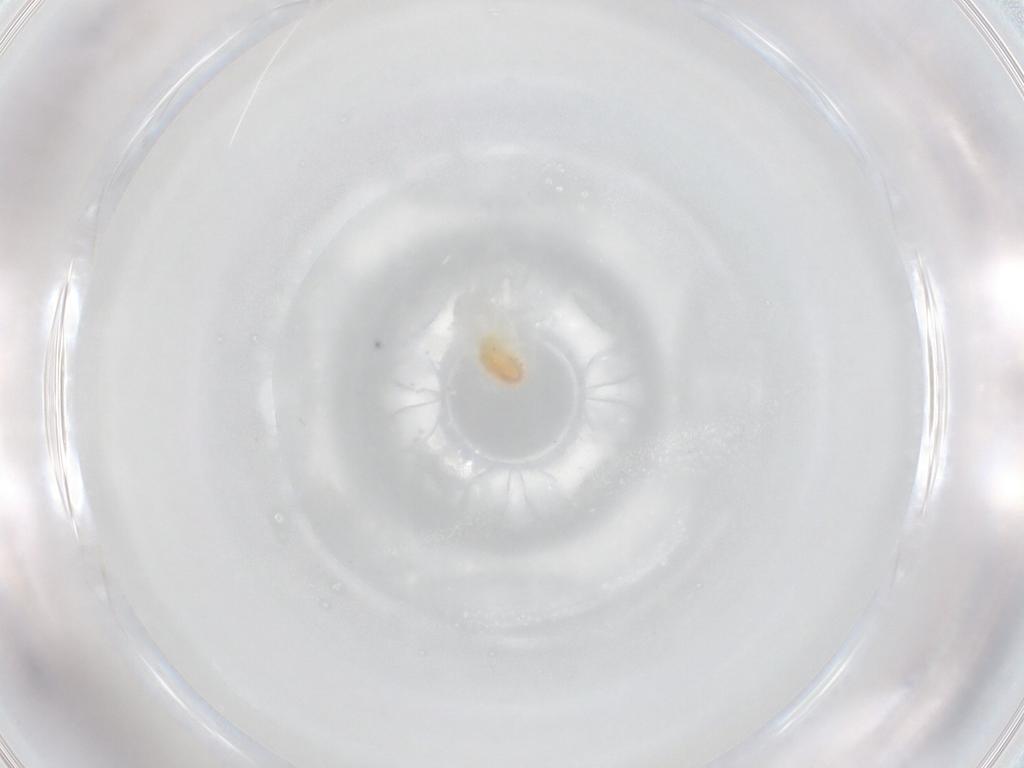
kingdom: Animalia
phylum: Arthropoda
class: Arachnida
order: Trombidiformes
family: Eupodidae
